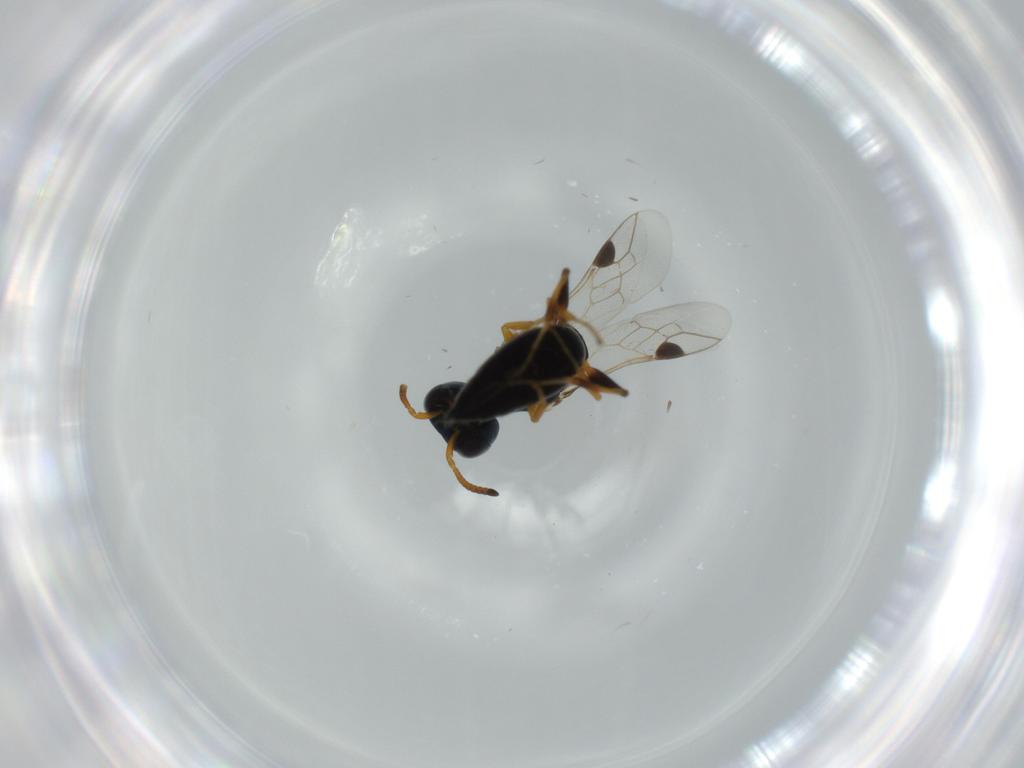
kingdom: Animalia
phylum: Arthropoda
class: Insecta
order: Hymenoptera
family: Pemphredonidae
